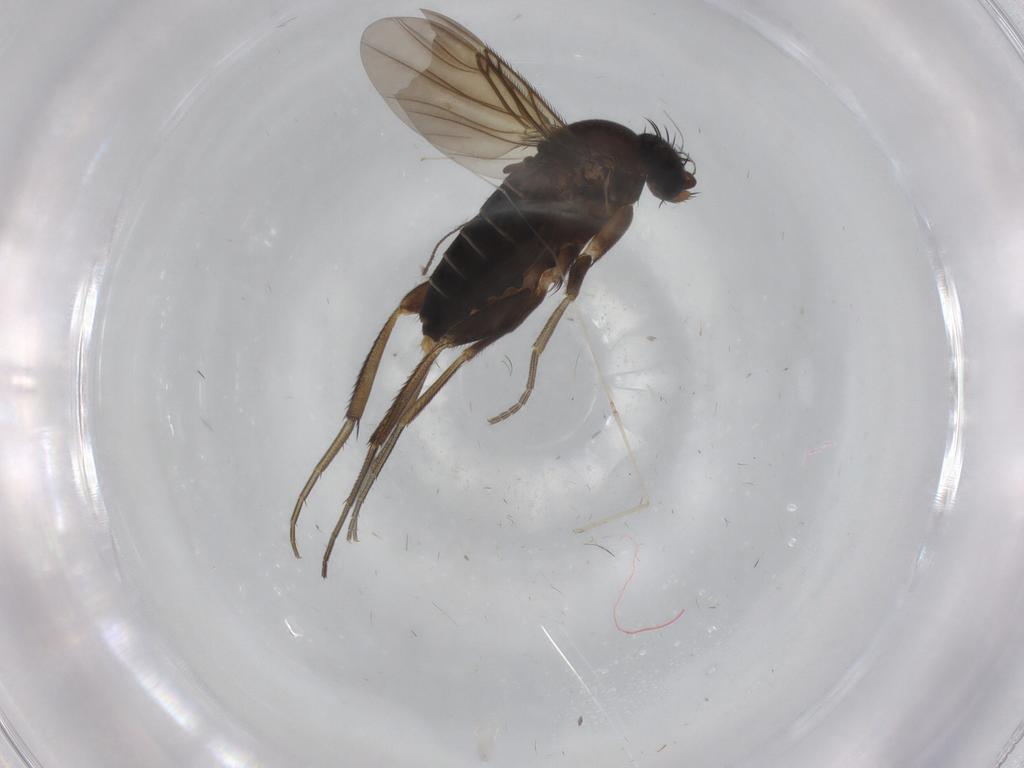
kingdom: Animalia
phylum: Arthropoda
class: Insecta
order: Diptera
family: Phoridae
